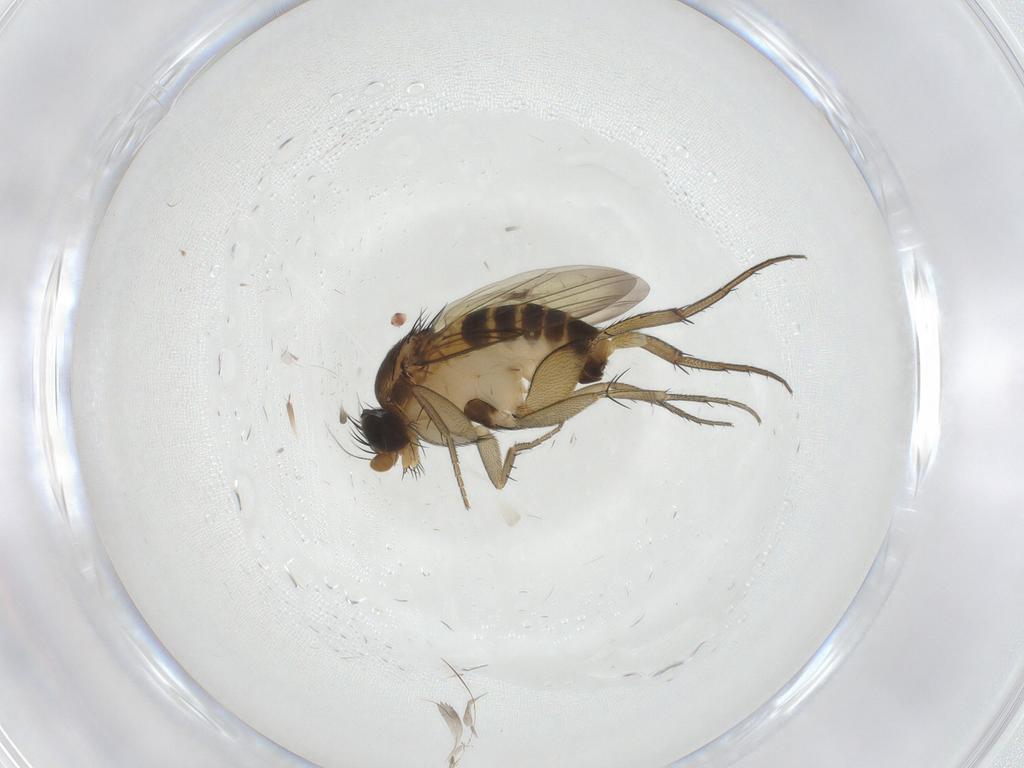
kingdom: Animalia
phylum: Arthropoda
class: Insecta
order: Diptera
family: Phoridae
